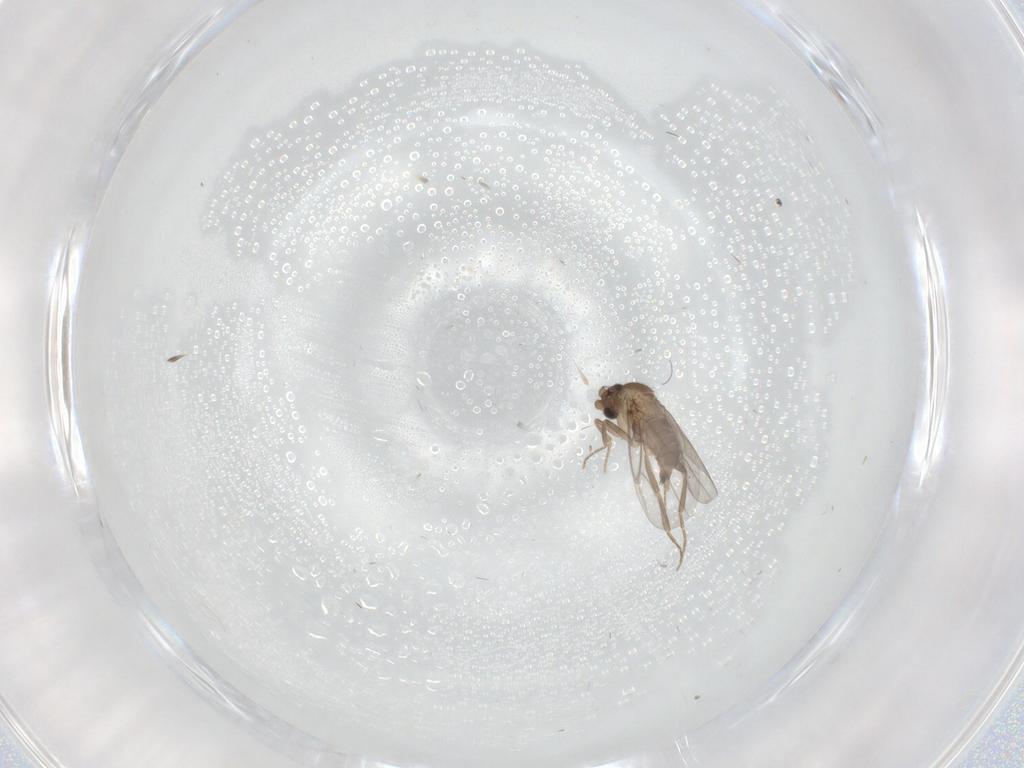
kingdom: Animalia
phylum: Arthropoda
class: Insecta
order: Diptera
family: Limoniidae
